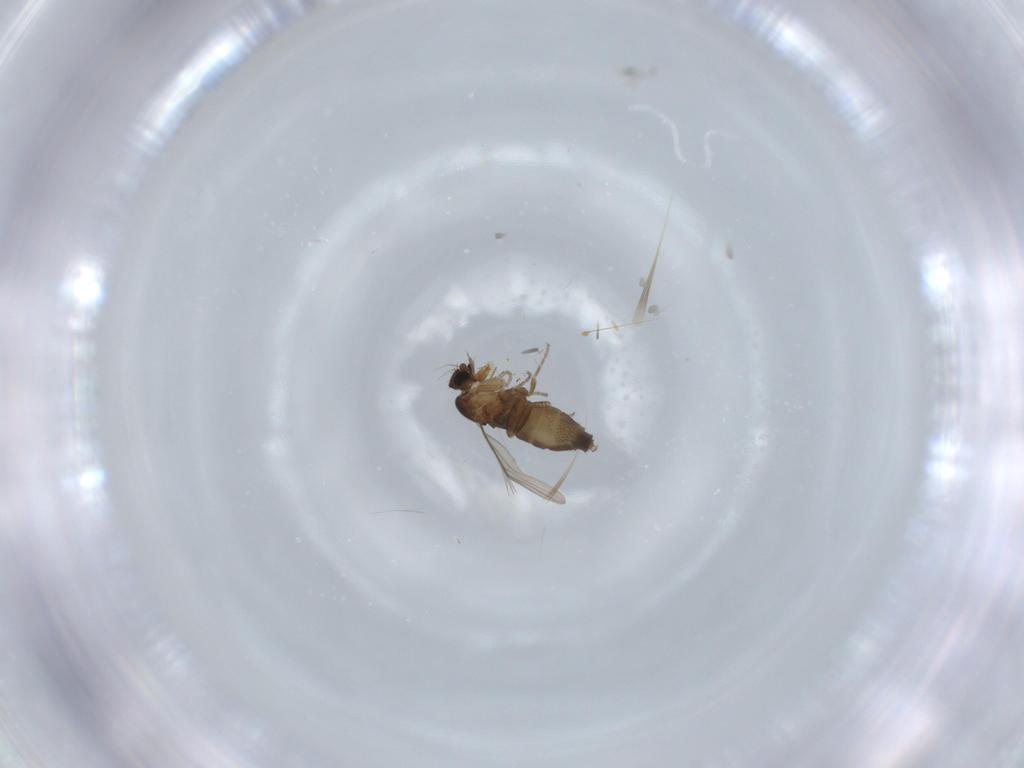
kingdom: Animalia
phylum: Arthropoda
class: Insecta
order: Diptera
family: Phoridae
